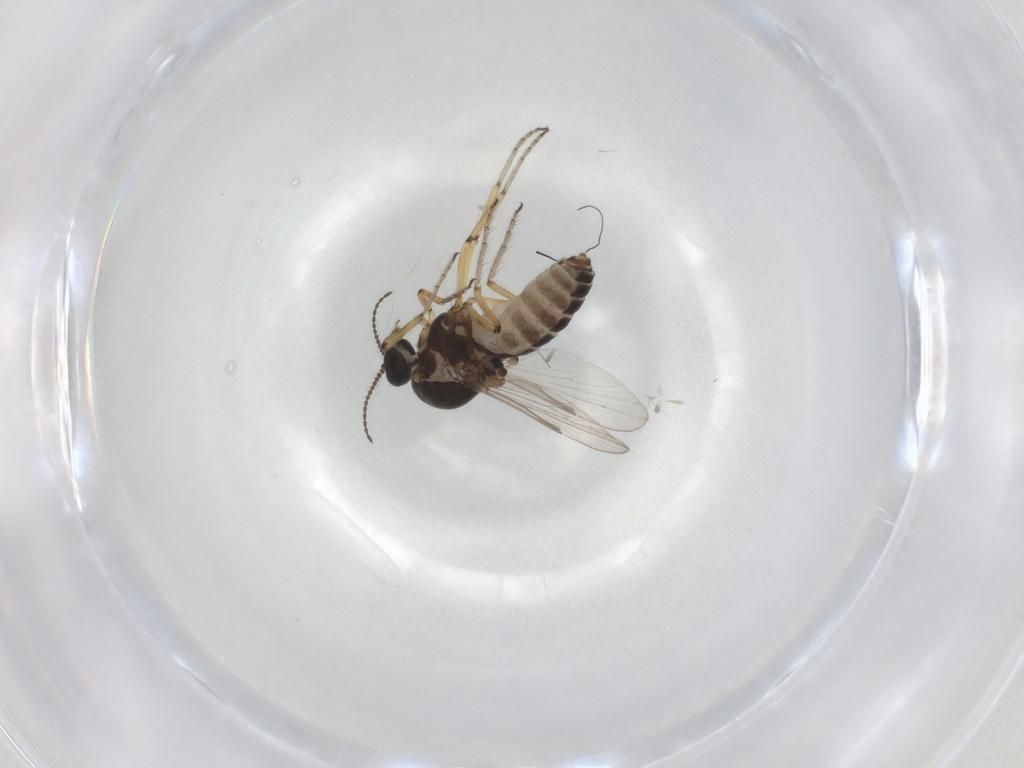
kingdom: Animalia
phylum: Arthropoda
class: Insecta
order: Diptera
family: Ceratopogonidae
